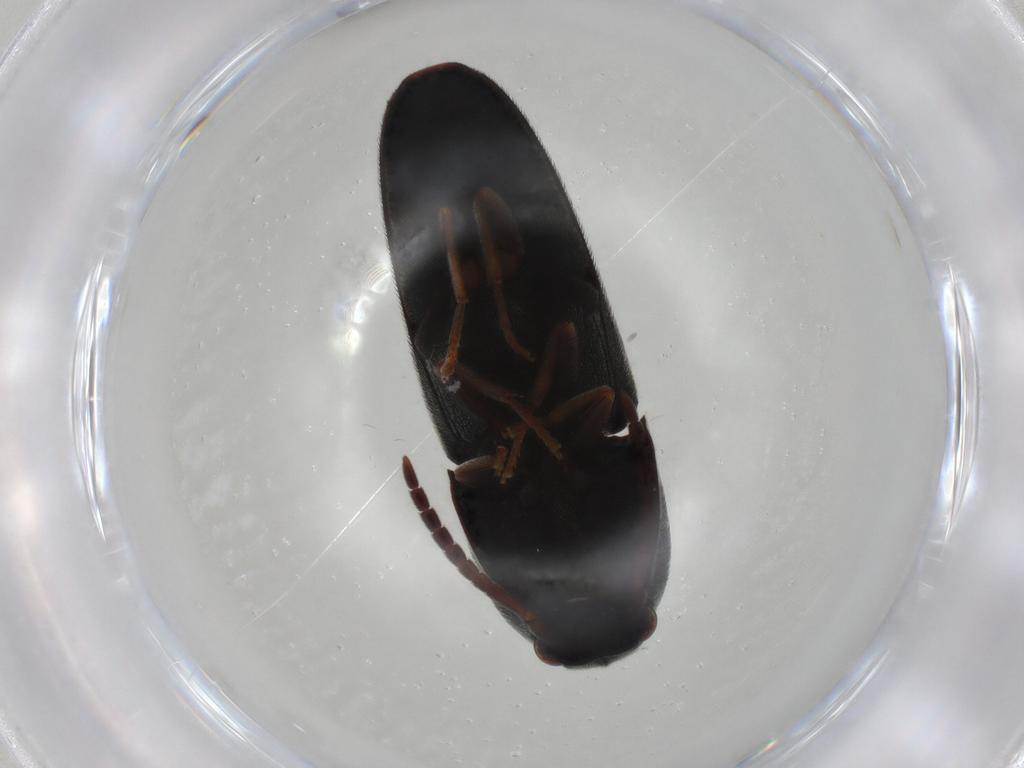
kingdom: Animalia
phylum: Arthropoda
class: Insecta
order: Coleoptera
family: Eucnemidae
